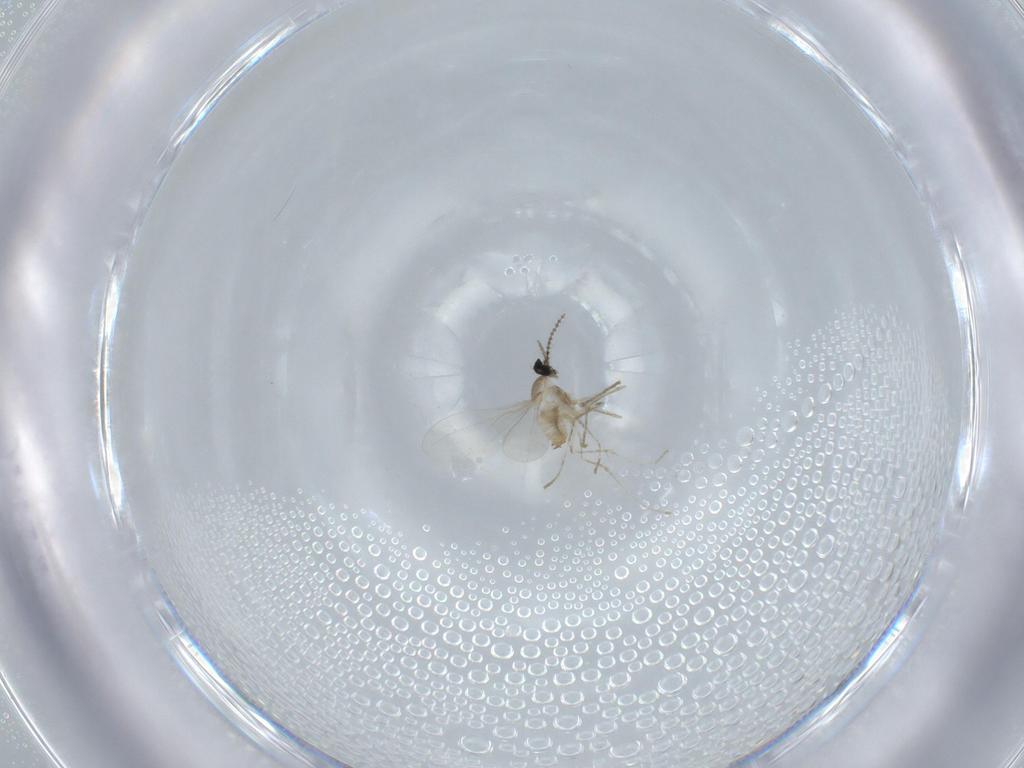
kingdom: Animalia
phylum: Arthropoda
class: Insecta
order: Diptera
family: Cecidomyiidae
